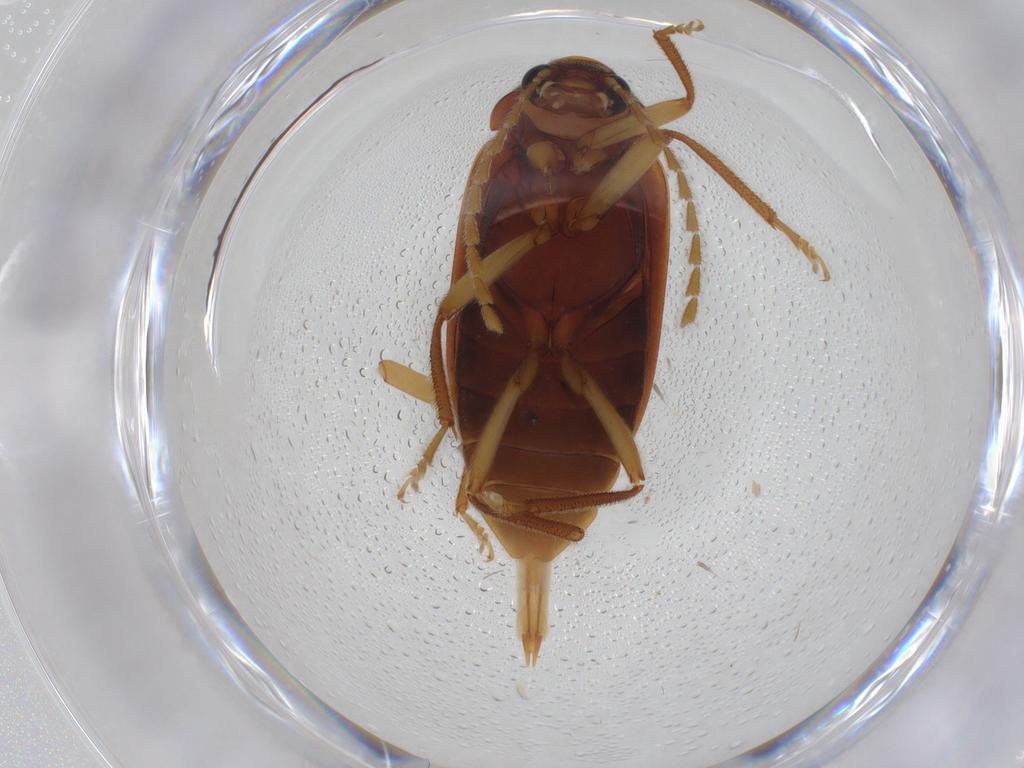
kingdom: Animalia
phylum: Arthropoda
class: Insecta
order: Coleoptera
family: Ptilodactylidae
